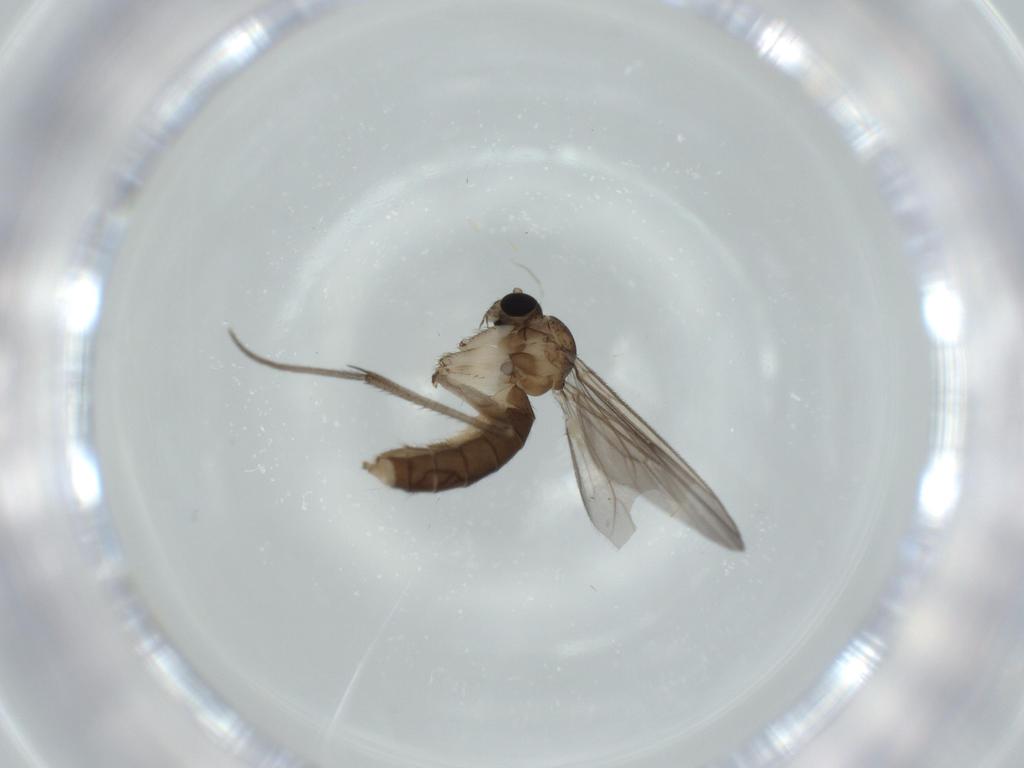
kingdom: Animalia
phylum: Arthropoda
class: Insecta
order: Diptera
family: Mycetophilidae
